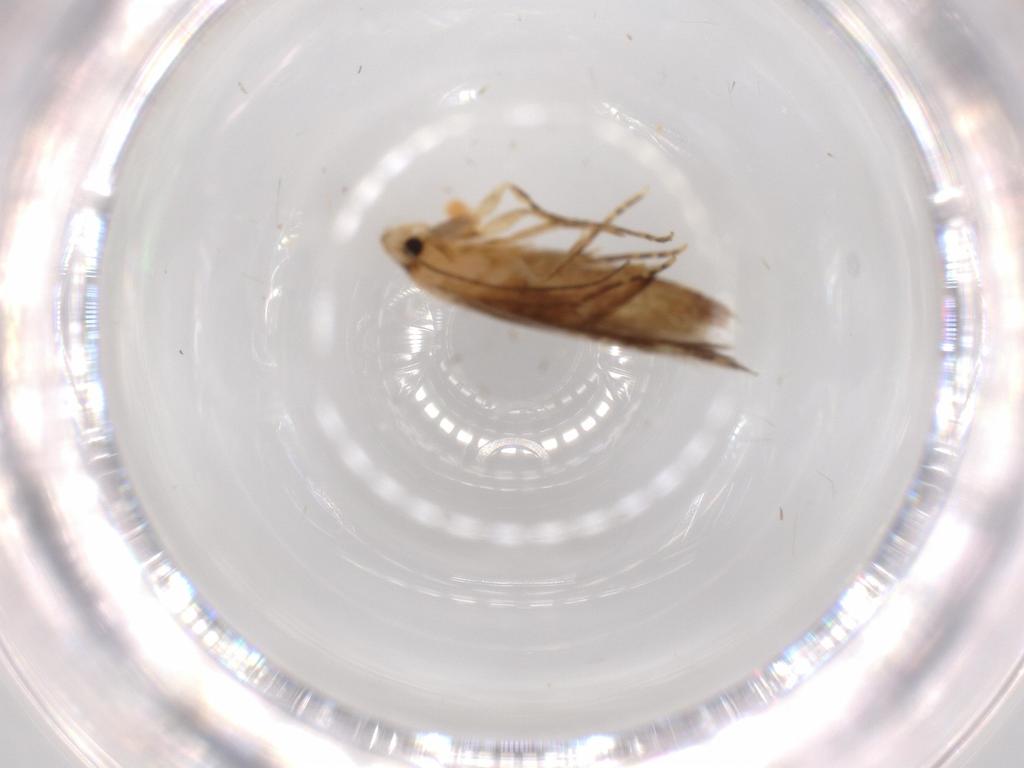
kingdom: Animalia
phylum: Arthropoda
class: Insecta
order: Lepidoptera
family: Tineidae
